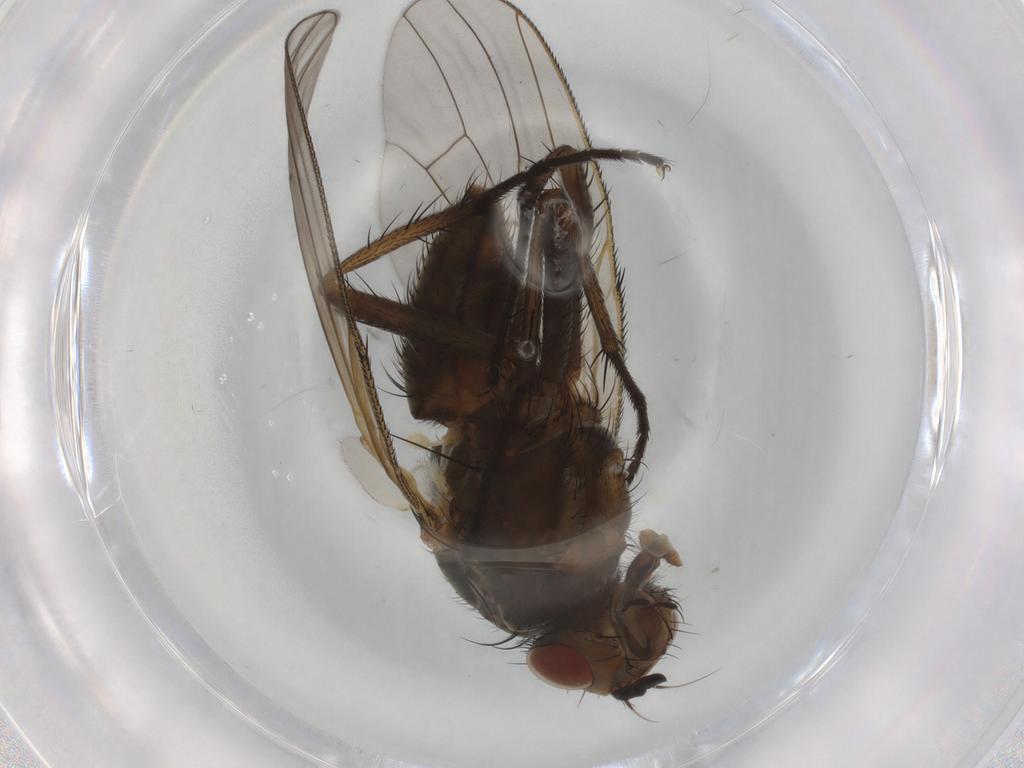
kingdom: Animalia
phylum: Arthropoda
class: Insecta
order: Diptera
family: Anthomyiidae
